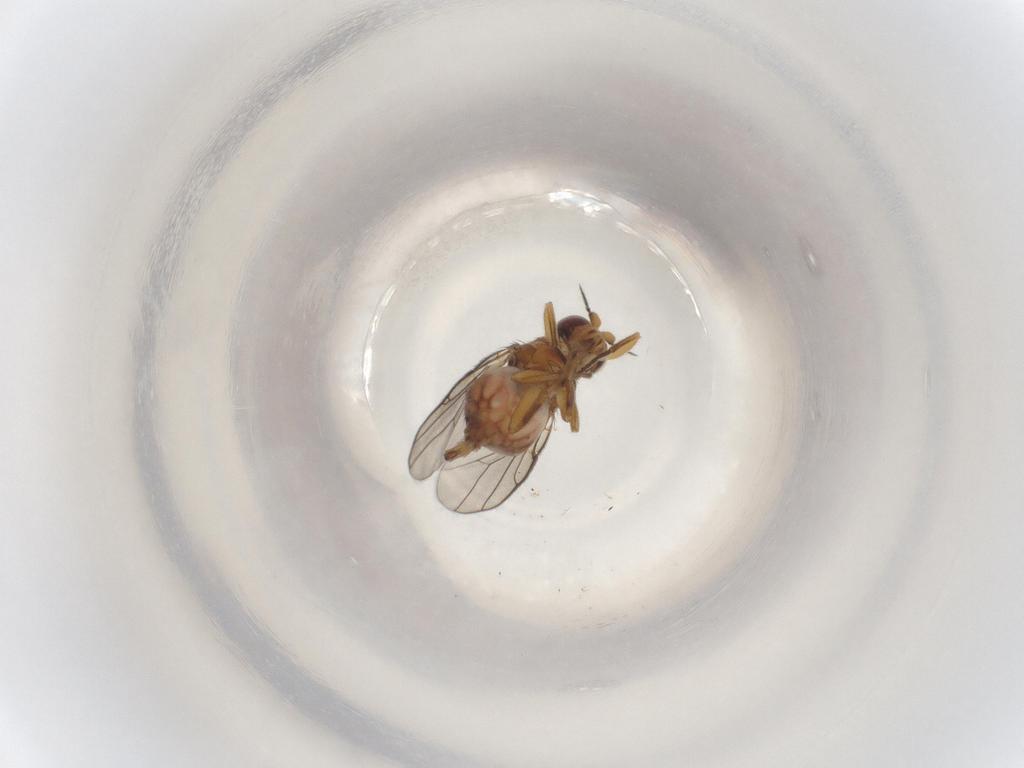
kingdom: Animalia
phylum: Arthropoda
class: Insecta
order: Diptera
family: Chloropidae
